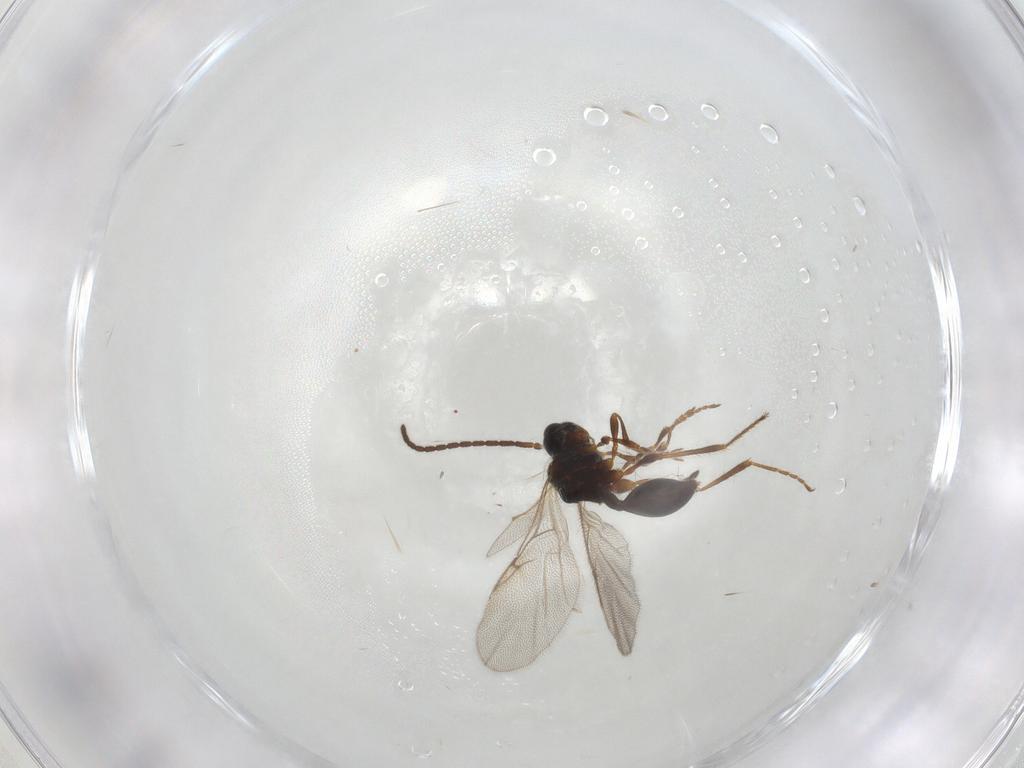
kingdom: Animalia
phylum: Arthropoda
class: Insecta
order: Hymenoptera
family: Diapriidae
